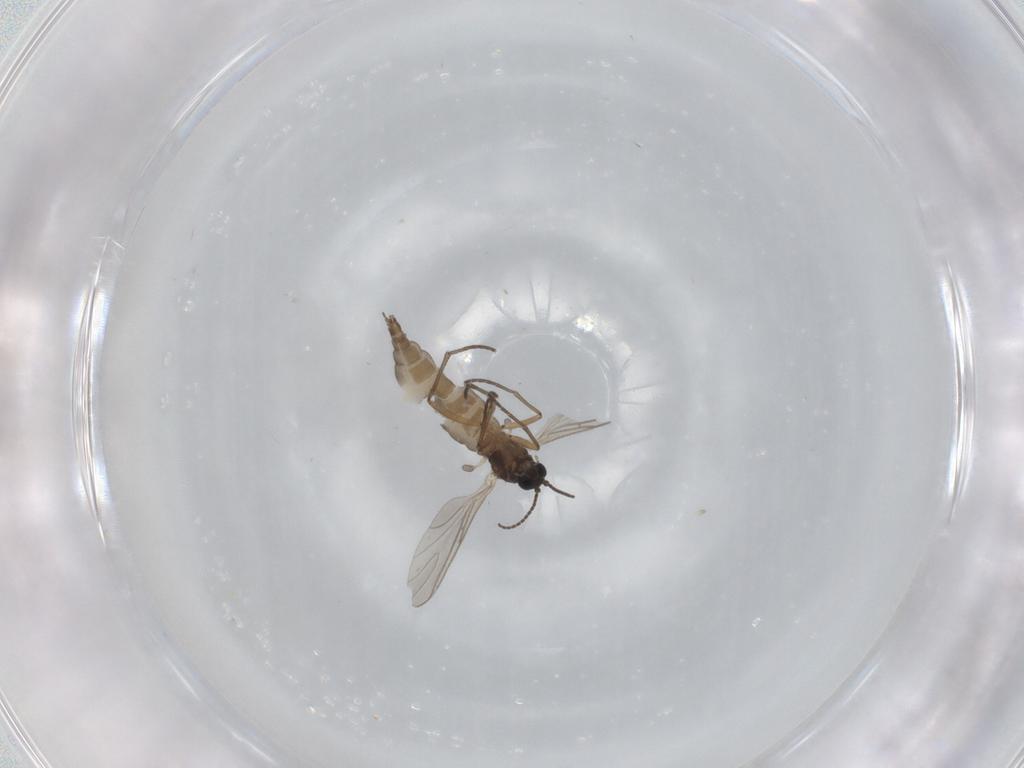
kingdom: Animalia
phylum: Arthropoda
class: Insecta
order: Diptera
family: Sciaridae
